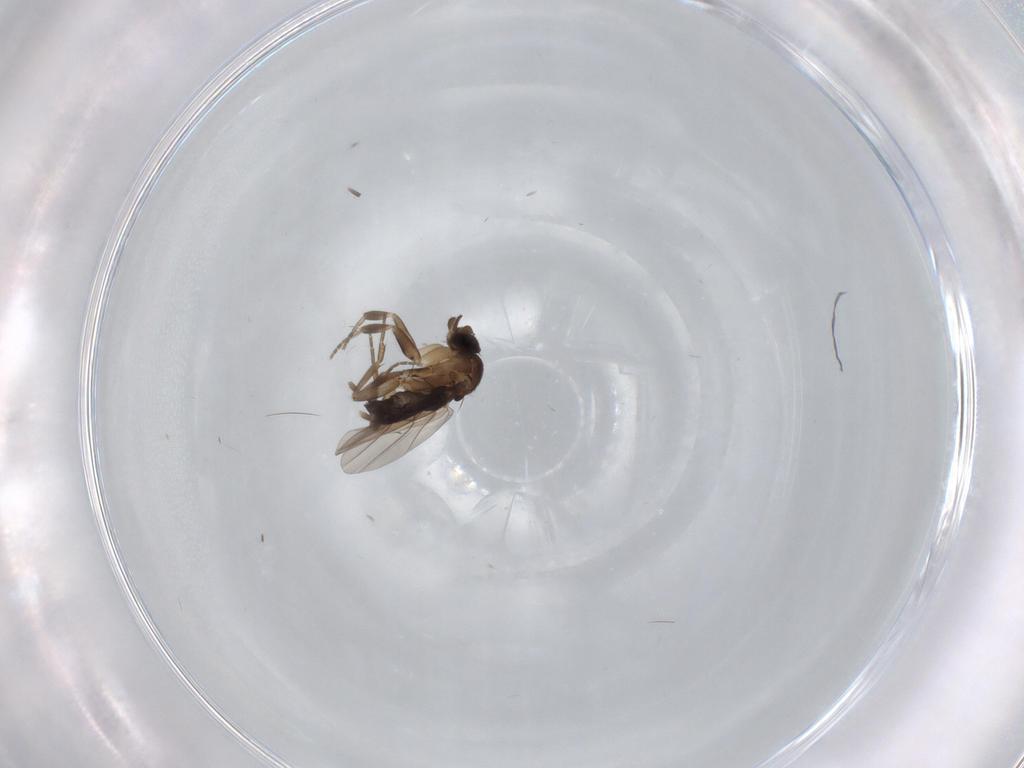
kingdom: Animalia
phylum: Arthropoda
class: Insecta
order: Diptera
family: Phoridae
